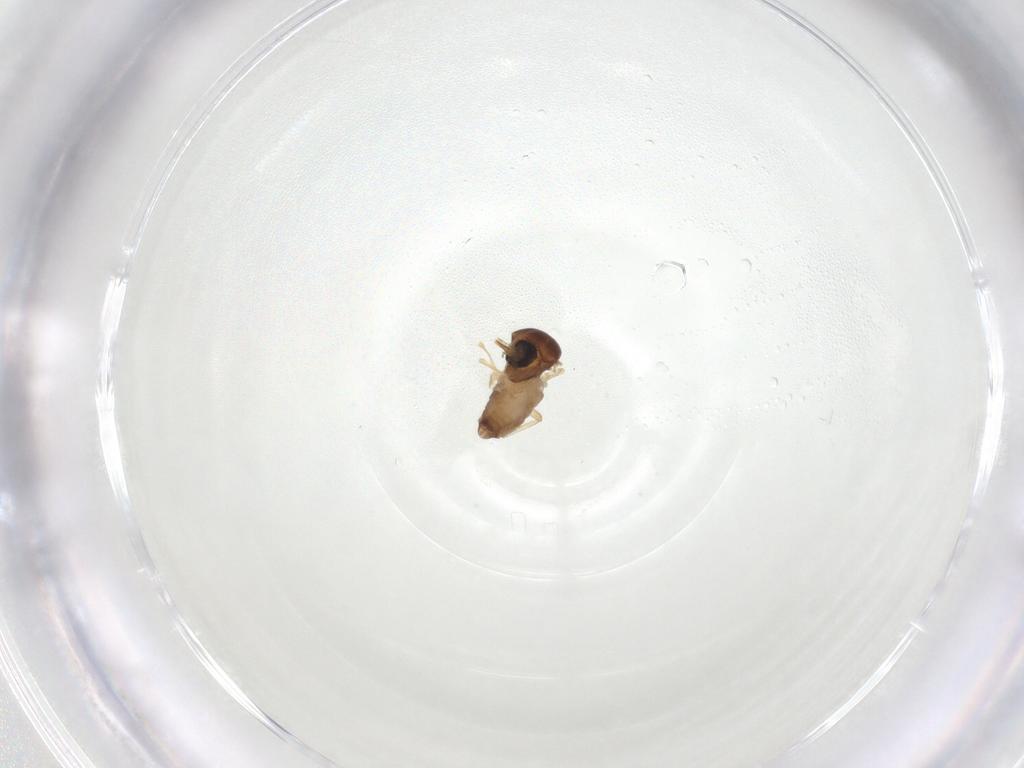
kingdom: Animalia
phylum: Arthropoda
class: Insecta
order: Diptera
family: Ceratopogonidae
